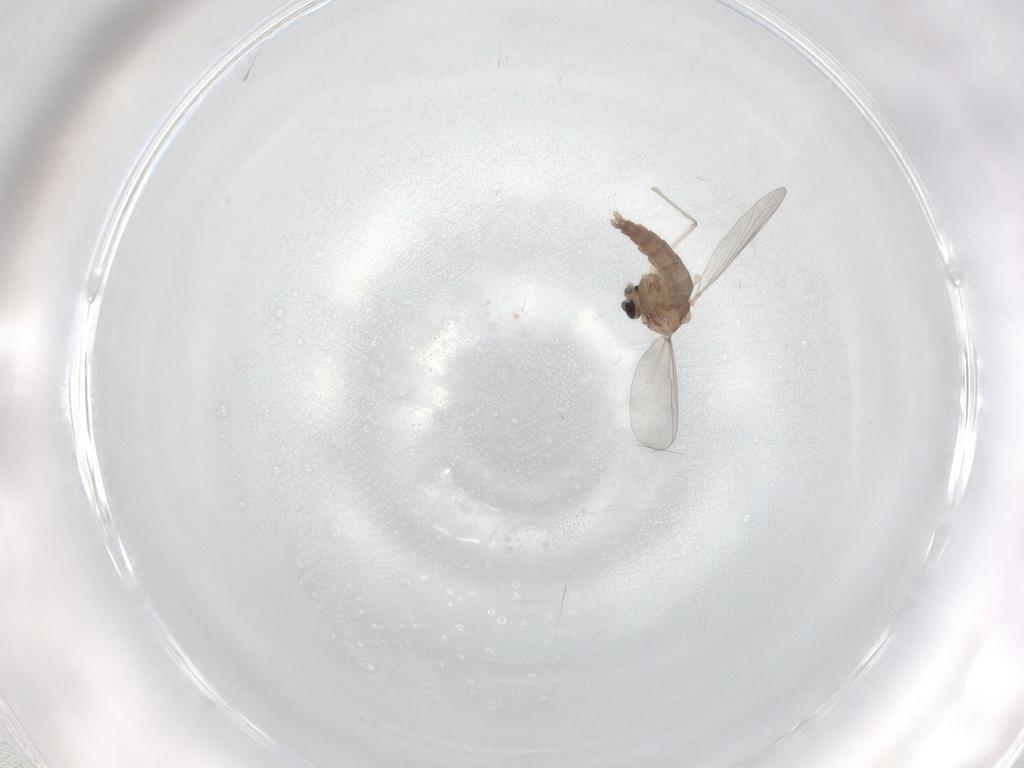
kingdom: Animalia
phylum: Arthropoda
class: Insecta
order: Diptera
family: Chironomidae
